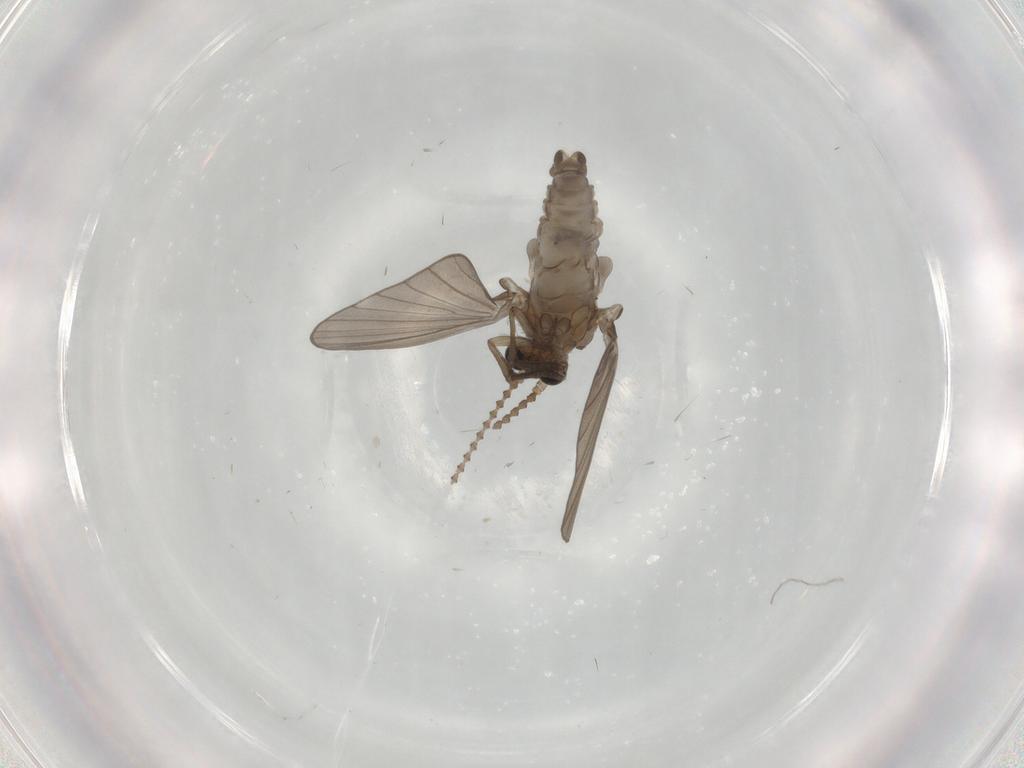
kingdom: Animalia
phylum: Arthropoda
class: Insecta
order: Diptera
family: Psychodidae
